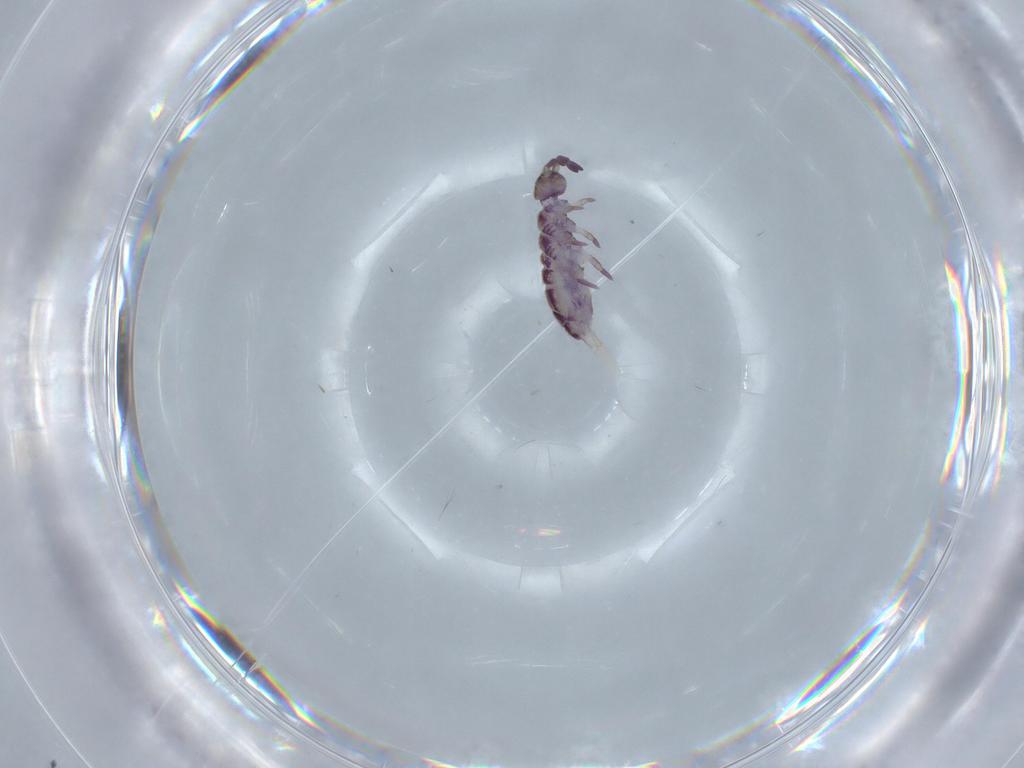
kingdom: Animalia
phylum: Arthropoda
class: Collembola
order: Entomobryomorpha
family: Isotomidae
